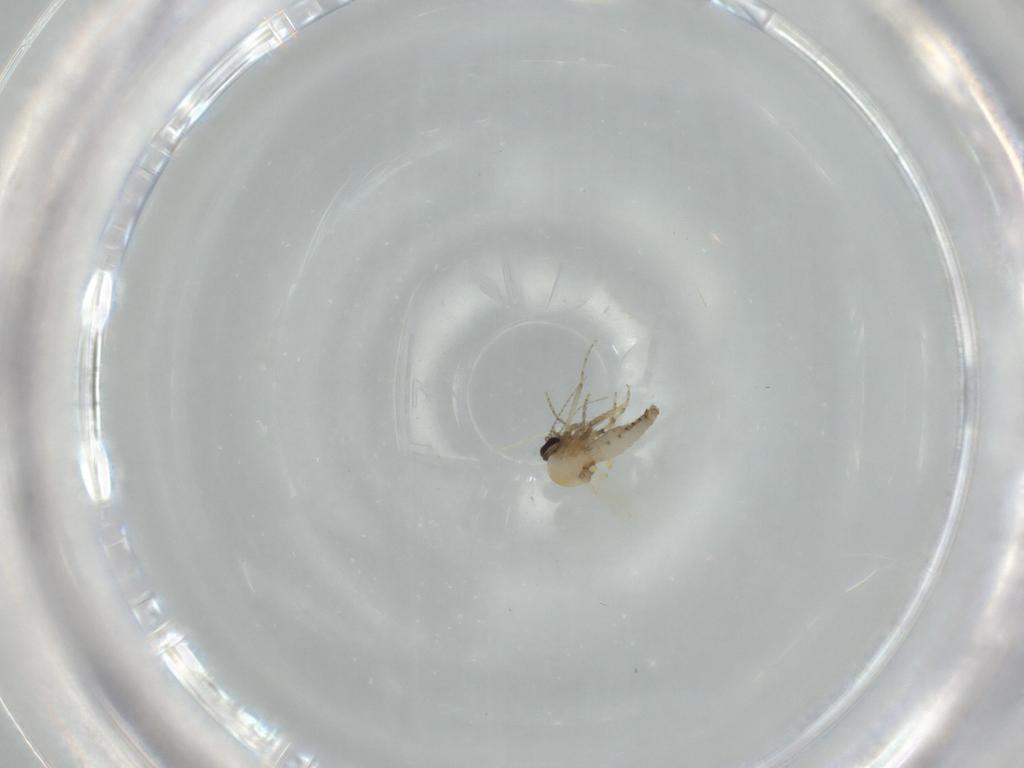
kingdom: Animalia
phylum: Arthropoda
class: Insecta
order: Diptera
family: Ceratopogonidae
